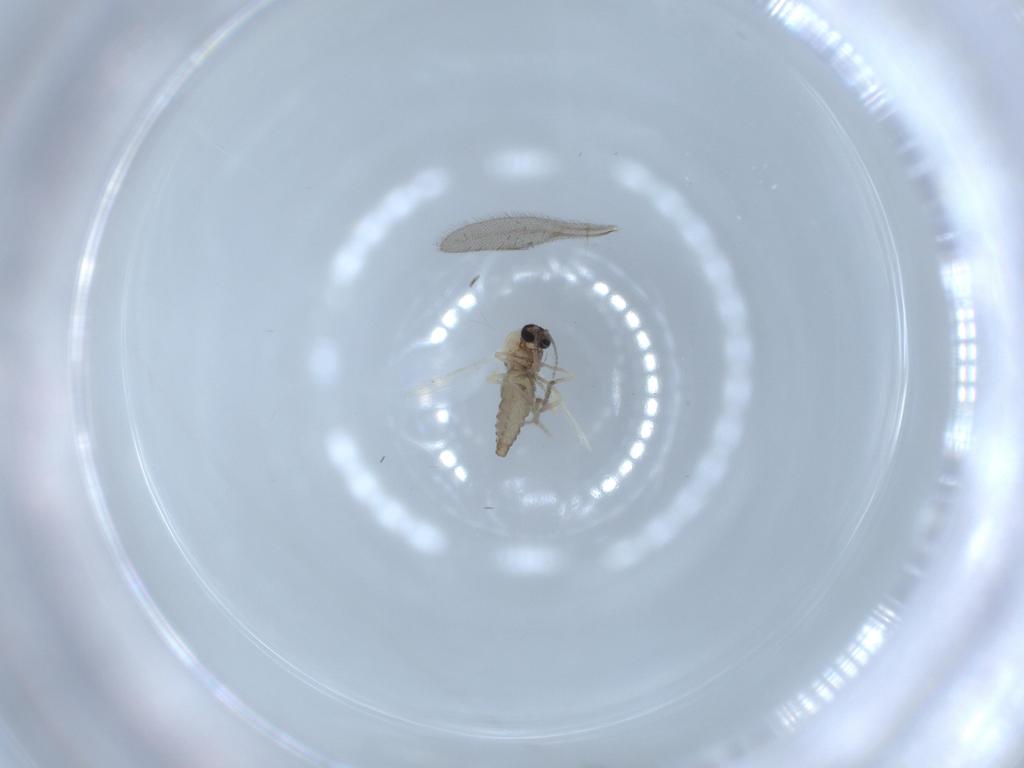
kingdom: Animalia
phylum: Arthropoda
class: Insecta
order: Diptera
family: Ceratopogonidae
